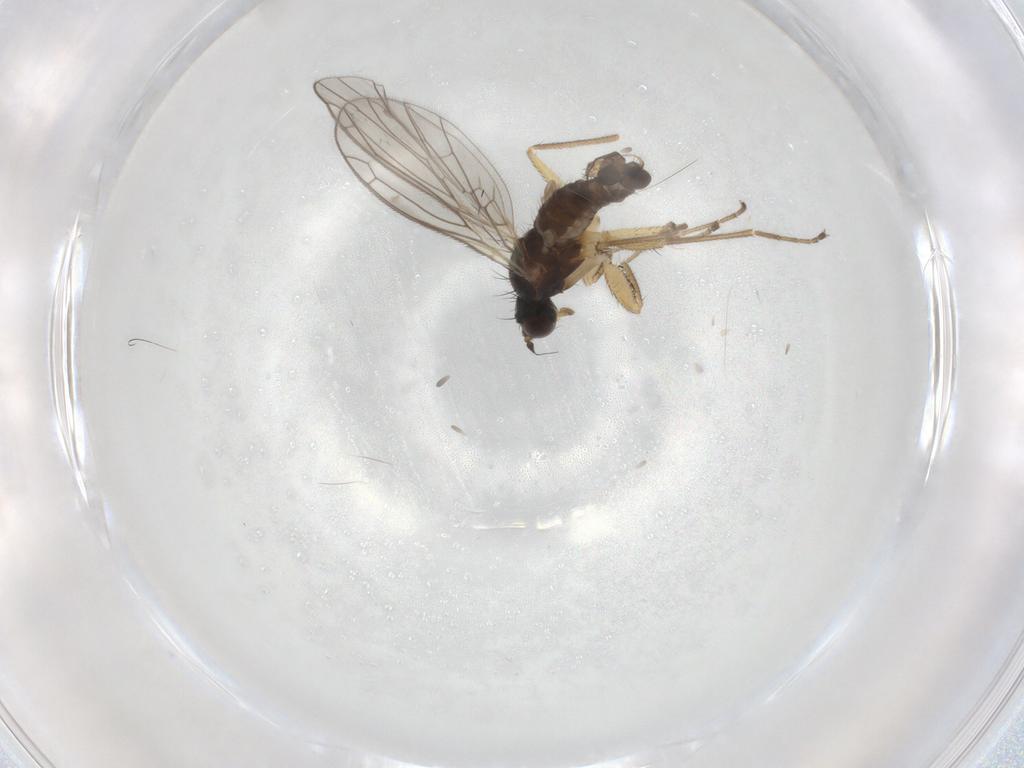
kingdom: Animalia
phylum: Arthropoda
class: Insecta
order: Diptera
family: Empididae
